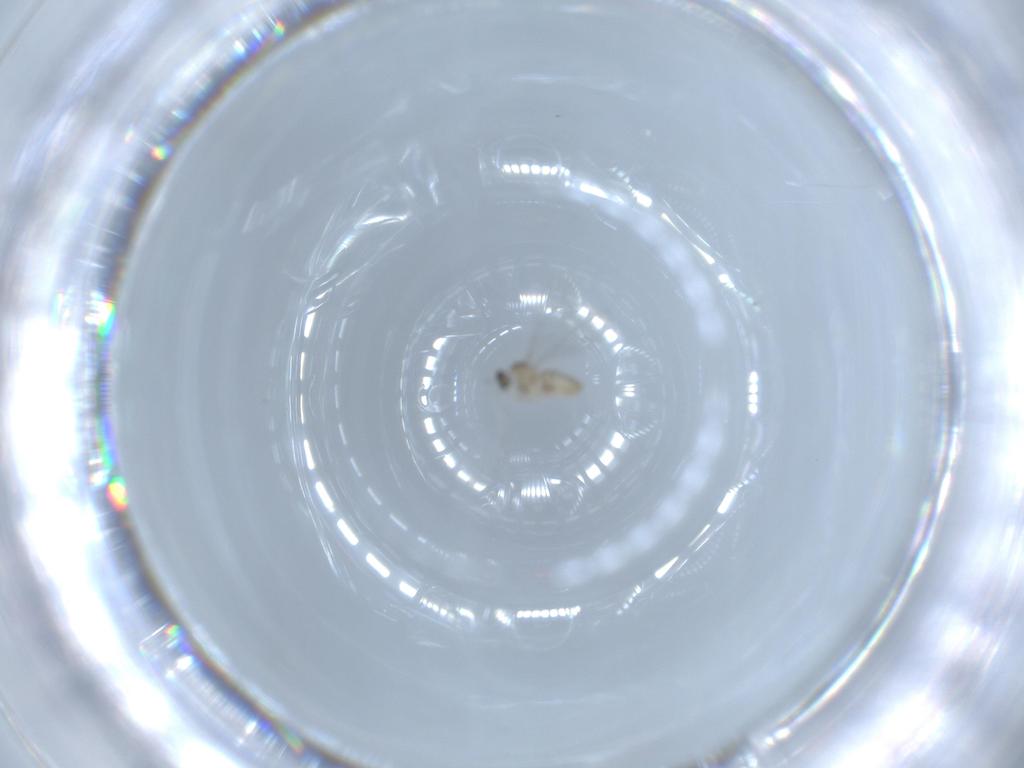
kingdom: Animalia
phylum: Arthropoda
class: Insecta
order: Diptera
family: Cecidomyiidae
